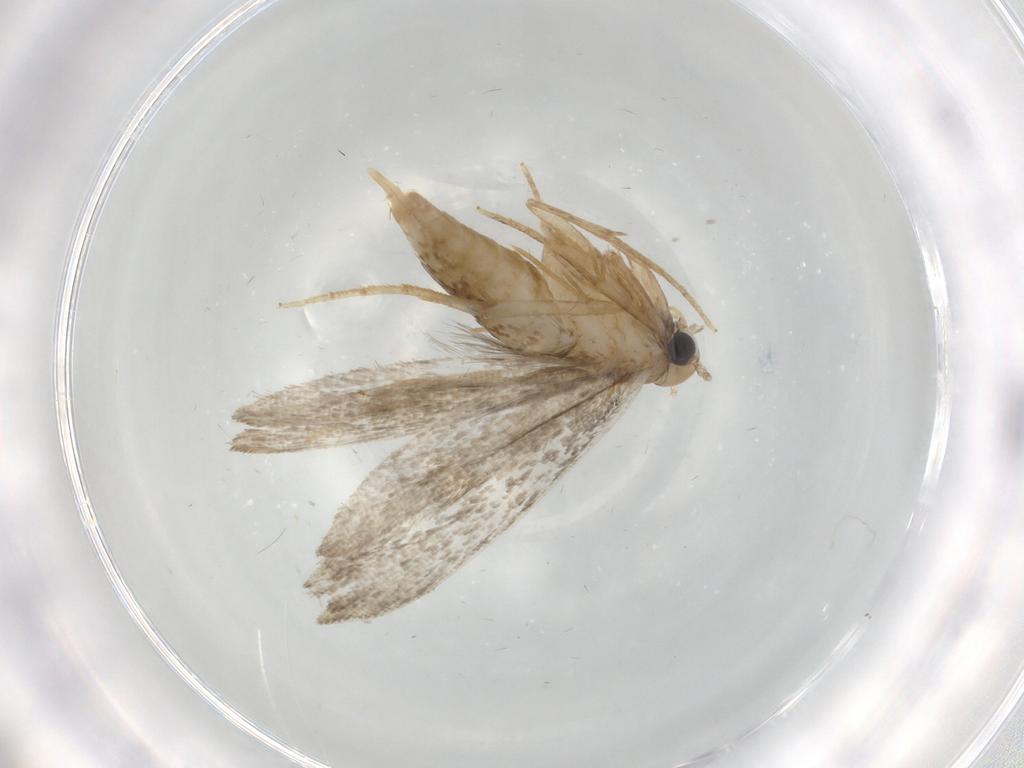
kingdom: Animalia
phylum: Arthropoda
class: Insecta
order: Lepidoptera
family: Tineidae
